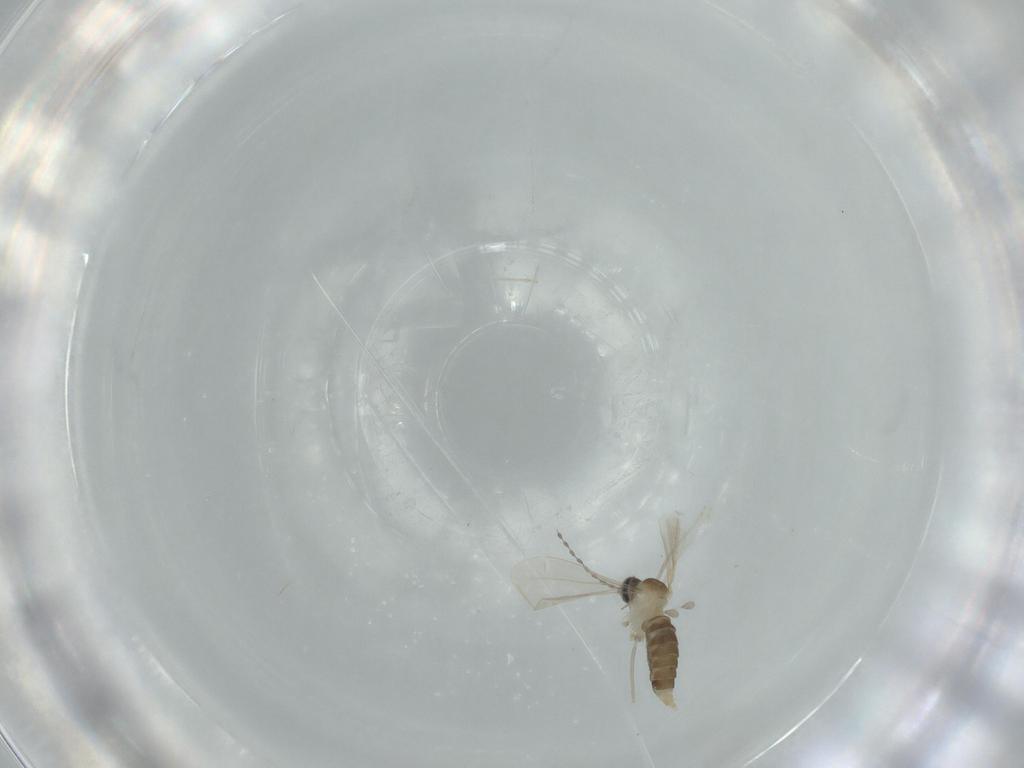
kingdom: Animalia
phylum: Arthropoda
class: Insecta
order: Diptera
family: Cecidomyiidae
